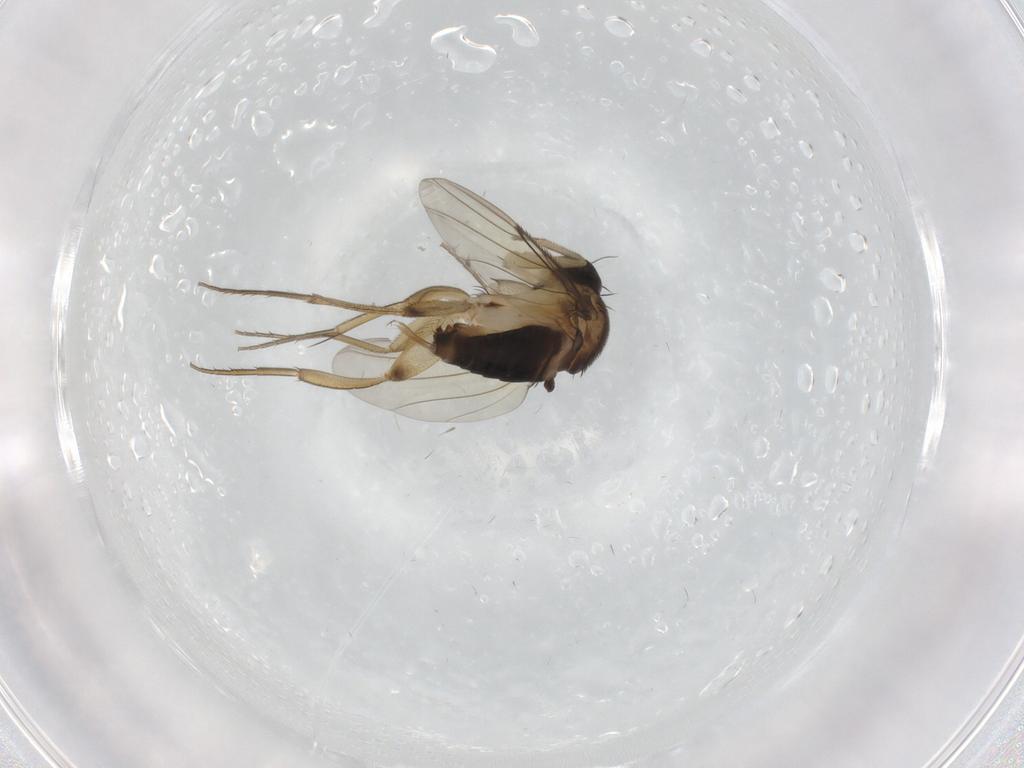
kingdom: Animalia
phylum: Arthropoda
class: Insecta
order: Diptera
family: Phoridae
